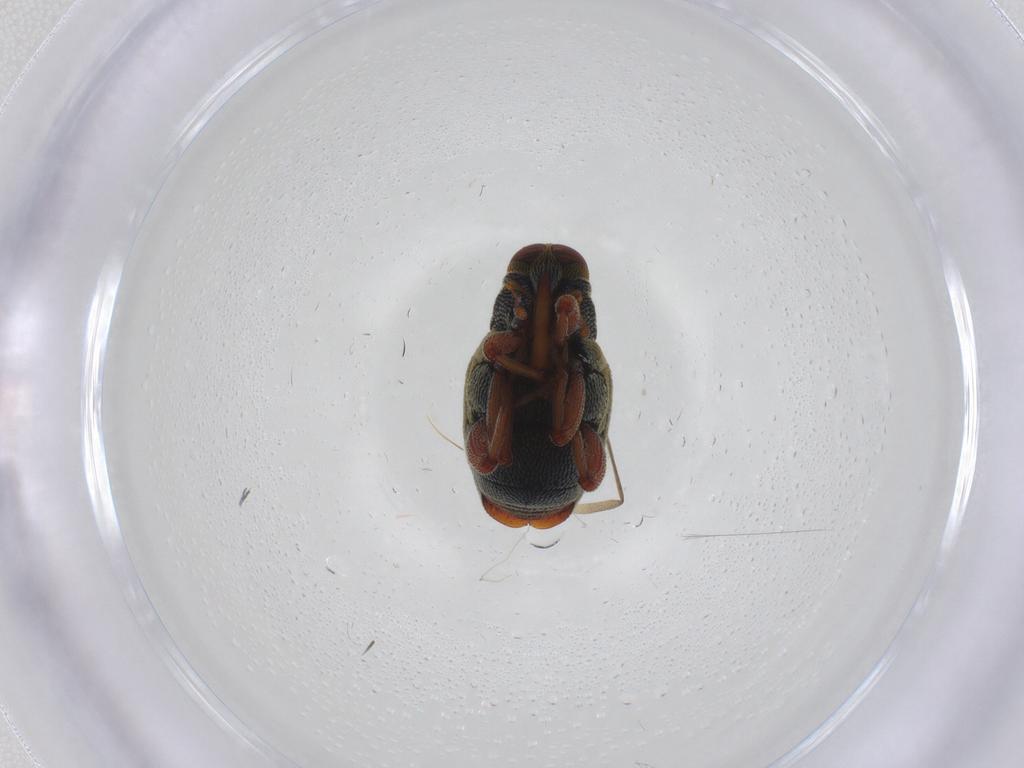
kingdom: Animalia
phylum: Arthropoda
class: Insecta
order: Coleoptera
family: Curculionidae
